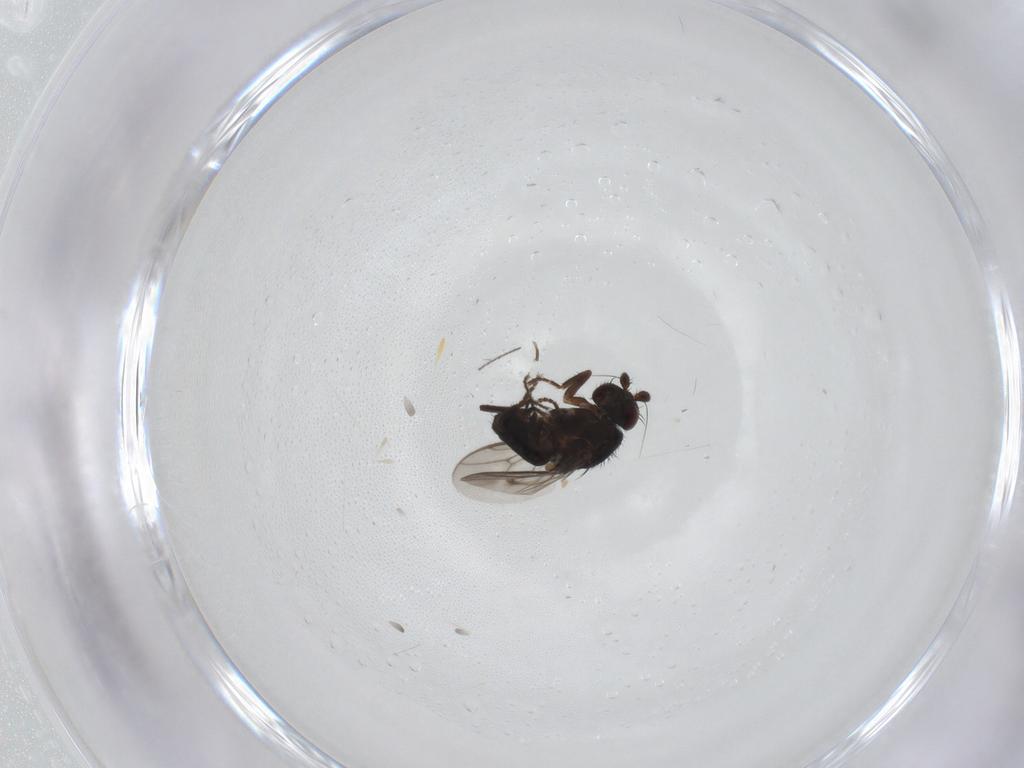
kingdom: Animalia
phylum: Arthropoda
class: Insecta
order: Diptera
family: Sphaeroceridae
